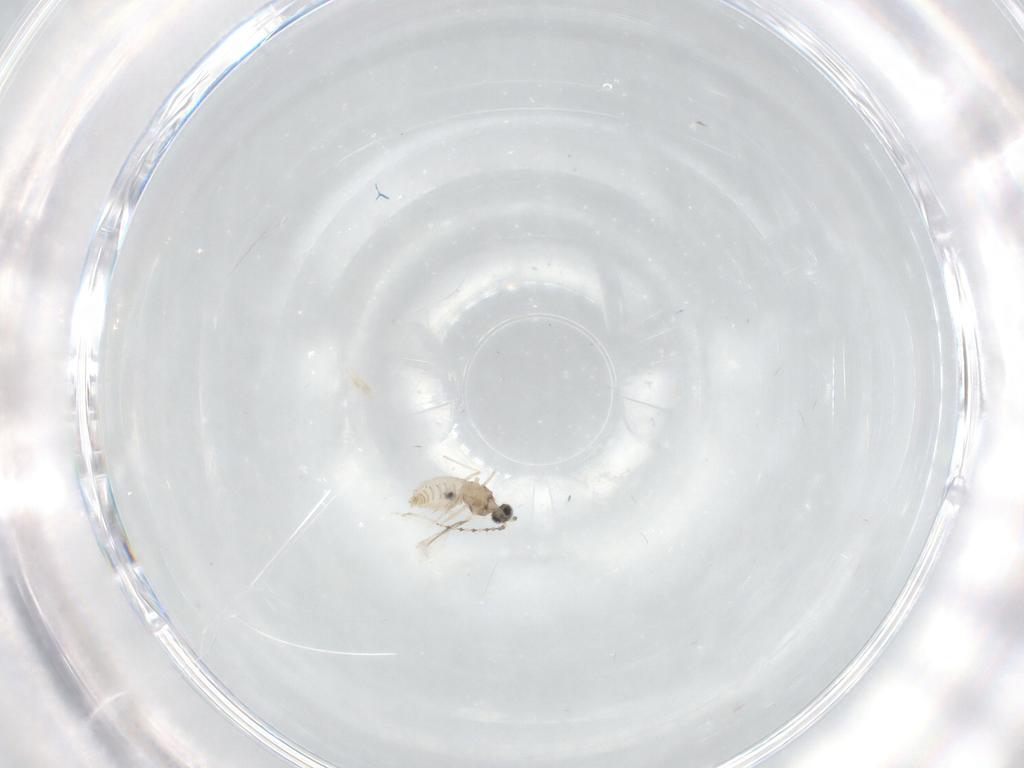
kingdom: Animalia
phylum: Arthropoda
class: Insecta
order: Diptera
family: Psychodidae
